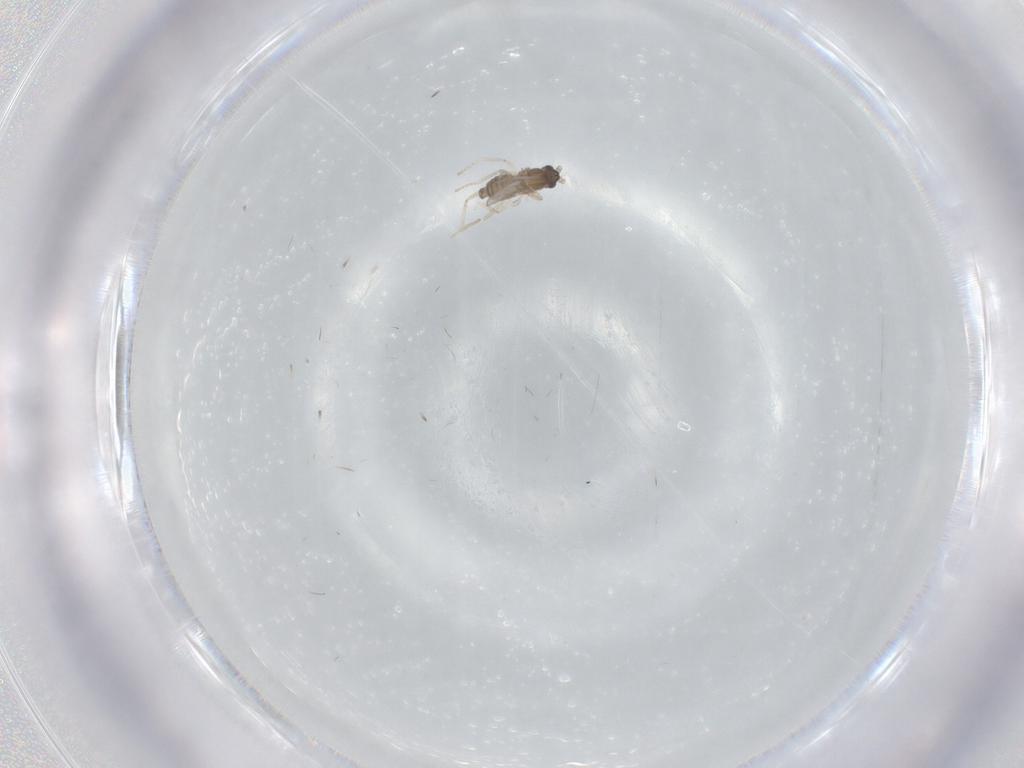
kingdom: Animalia
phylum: Arthropoda
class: Insecta
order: Diptera
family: Cecidomyiidae
